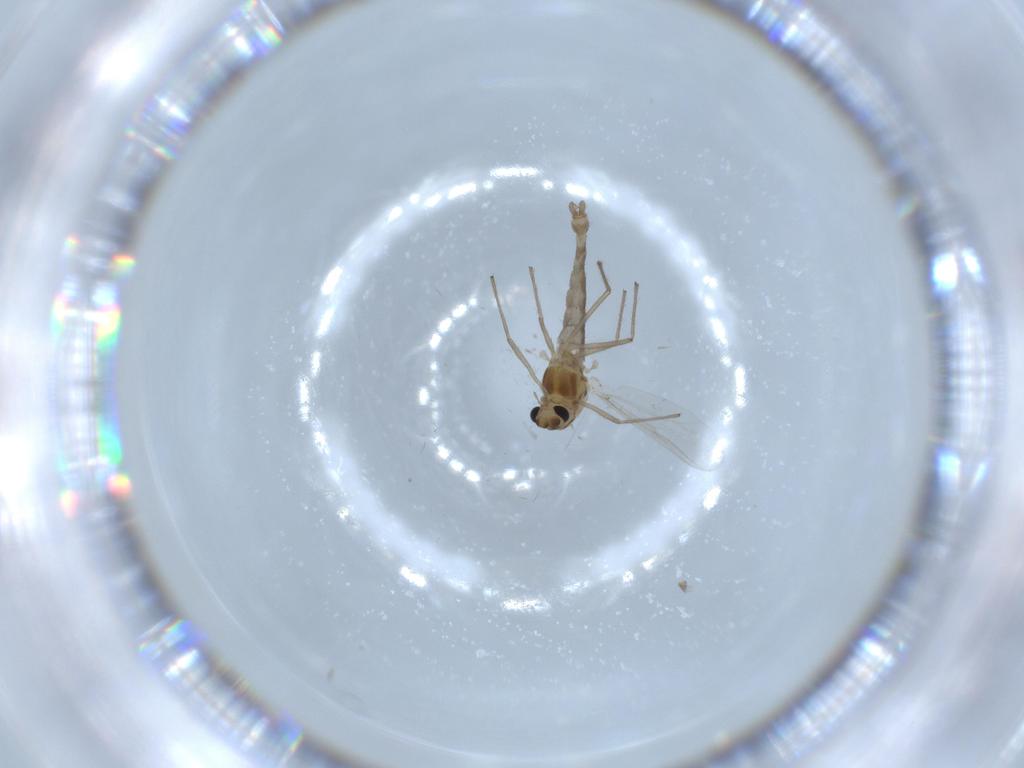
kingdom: Animalia
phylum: Arthropoda
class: Insecta
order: Diptera
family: Chironomidae
